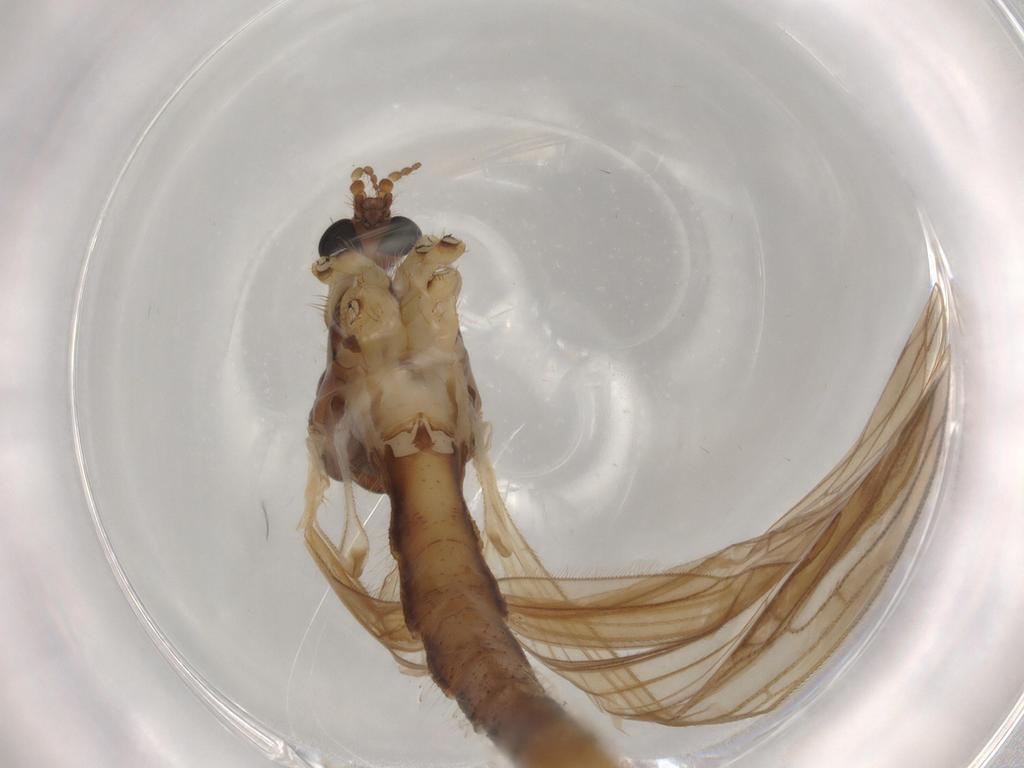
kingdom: Animalia
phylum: Arthropoda
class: Insecta
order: Diptera
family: Limoniidae
